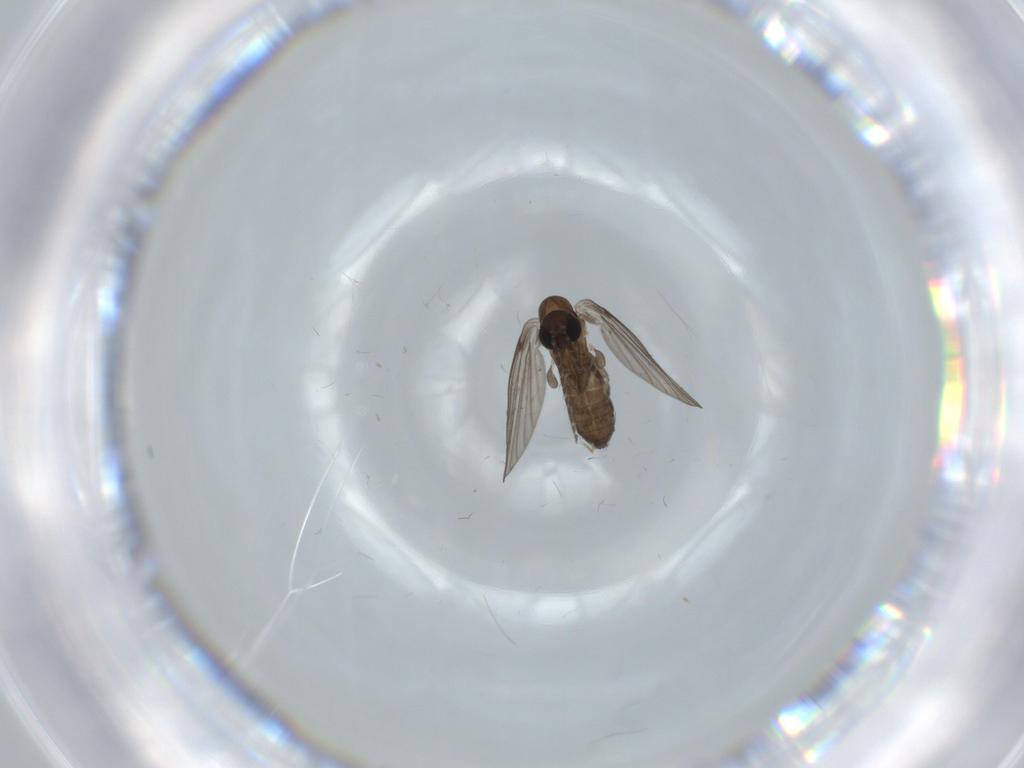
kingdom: Animalia
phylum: Arthropoda
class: Insecta
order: Diptera
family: Psychodidae
